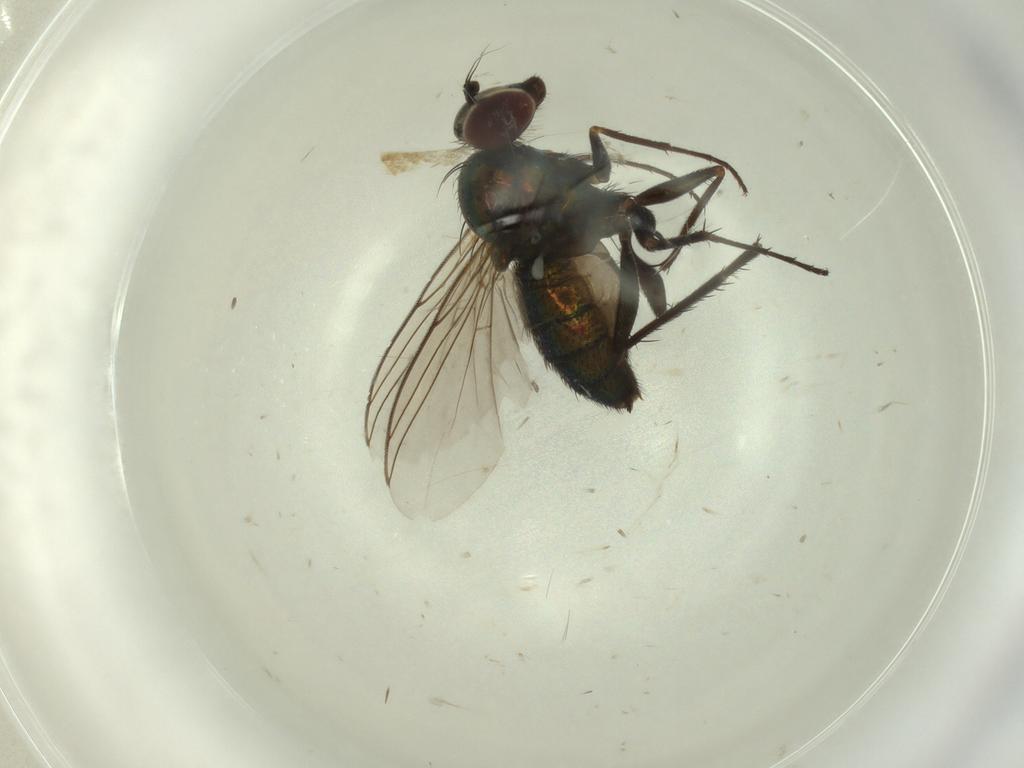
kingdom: Animalia
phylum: Arthropoda
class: Insecta
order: Diptera
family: Dolichopodidae
